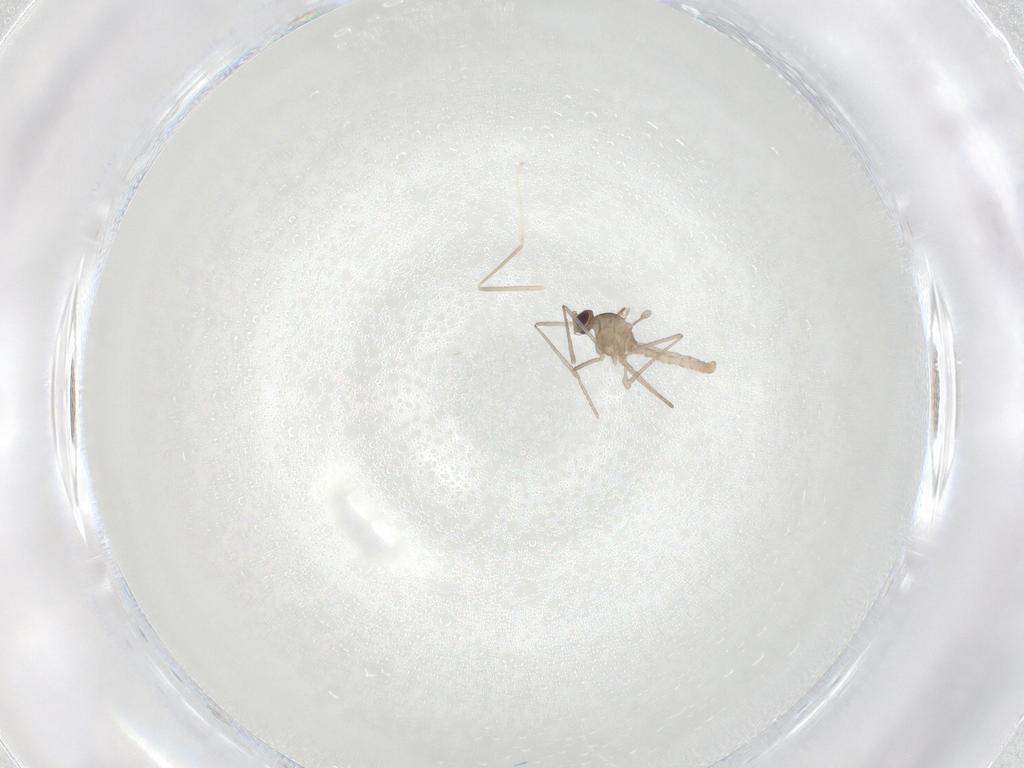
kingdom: Animalia
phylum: Arthropoda
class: Insecta
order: Diptera
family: Cecidomyiidae
